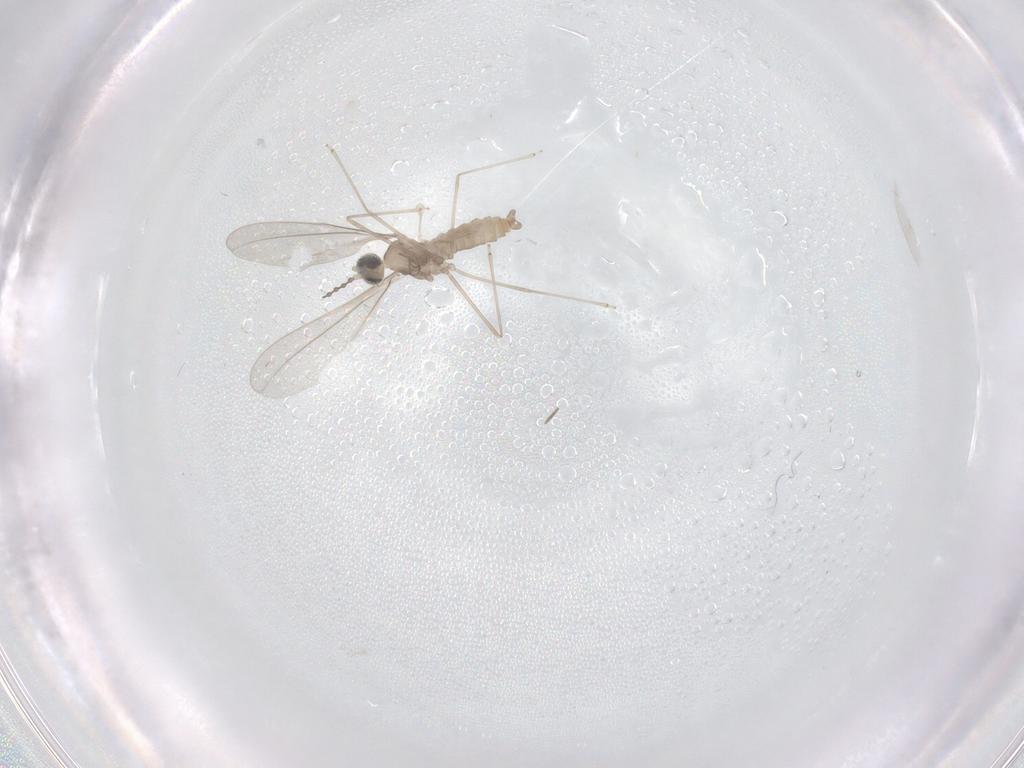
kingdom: Animalia
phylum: Arthropoda
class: Insecta
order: Diptera
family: Cecidomyiidae
